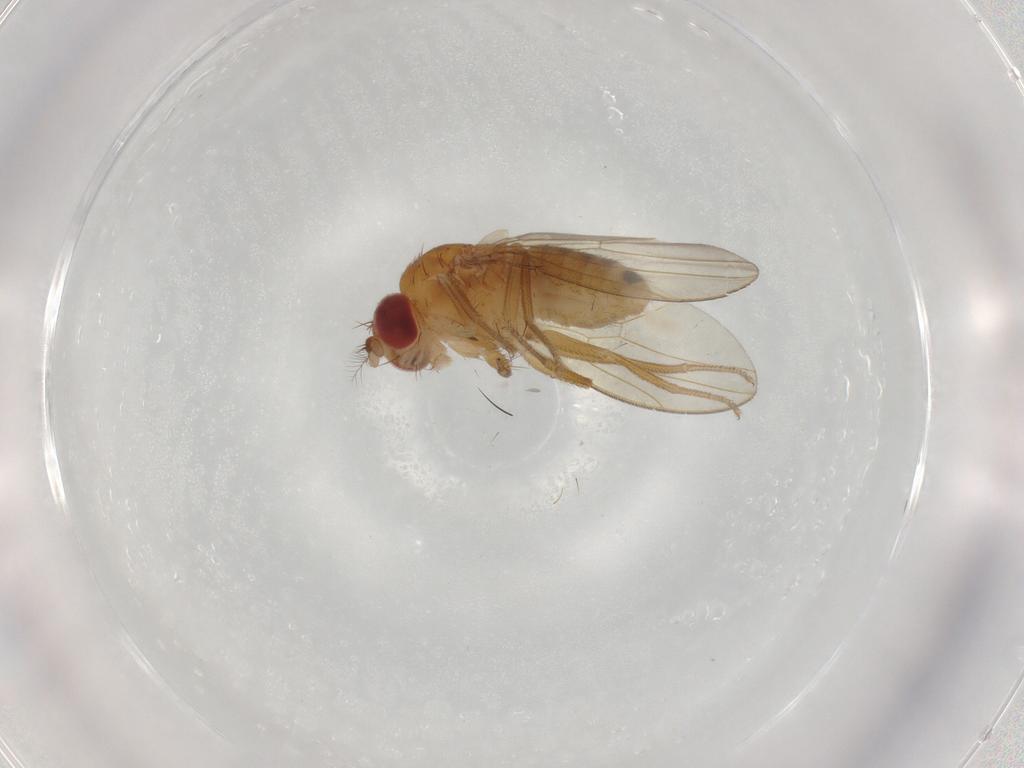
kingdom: Animalia
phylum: Arthropoda
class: Insecta
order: Diptera
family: Drosophilidae
